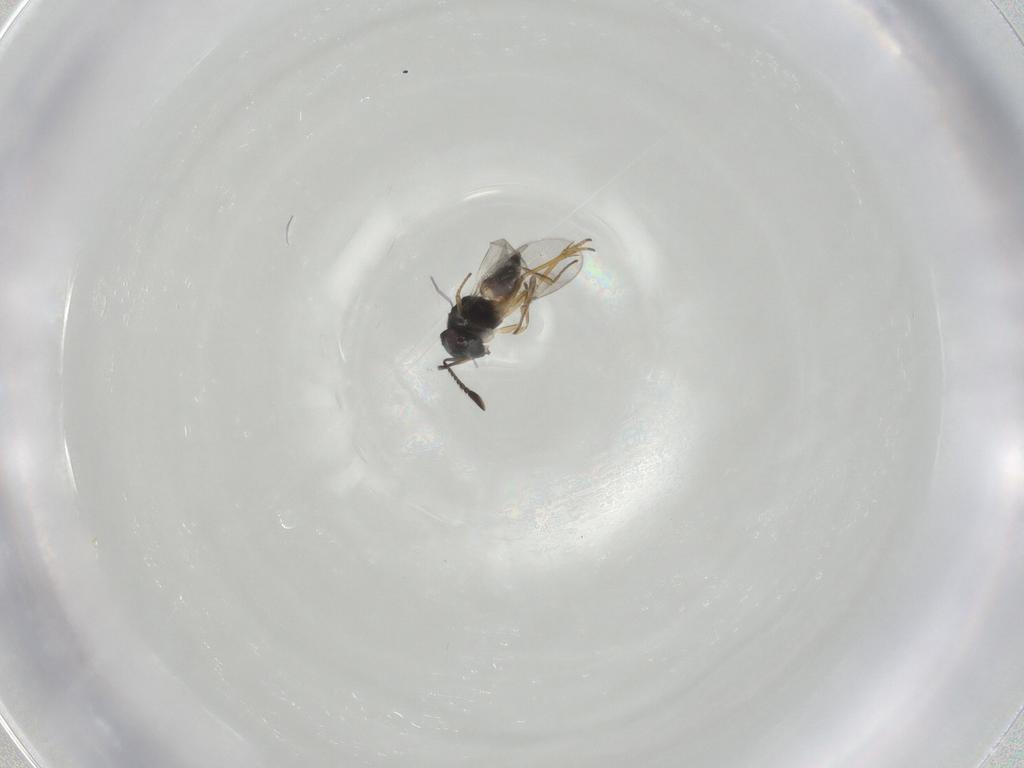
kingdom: Animalia
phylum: Arthropoda
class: Insecta
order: Hymenoptera
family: Encyrtidae
